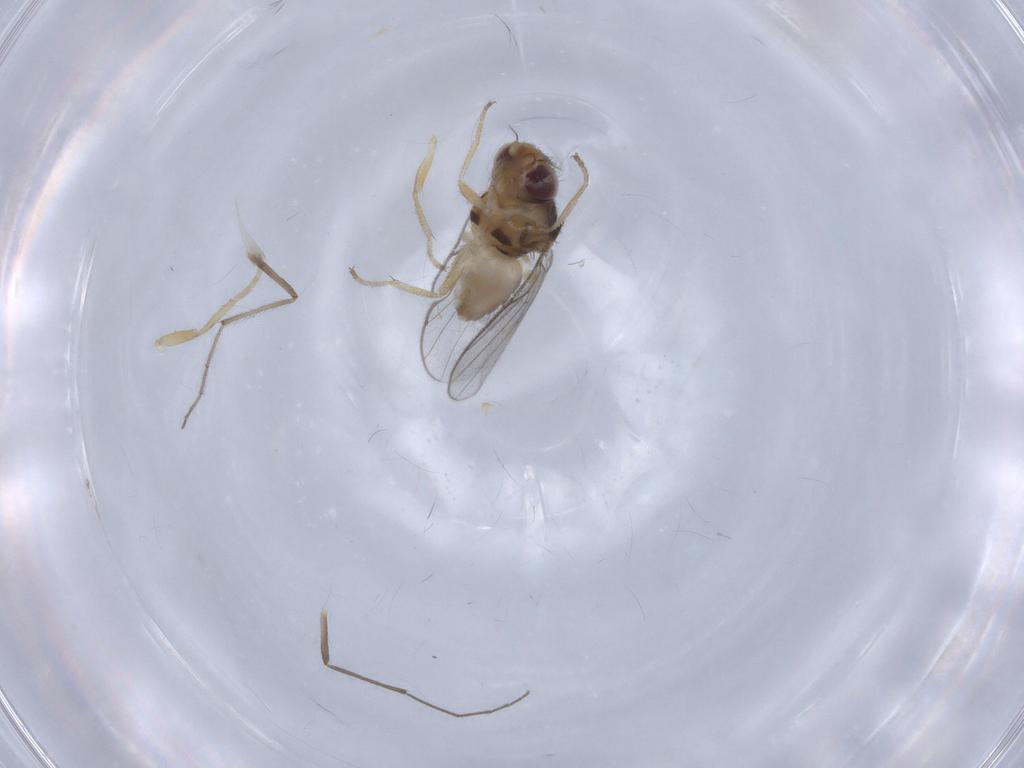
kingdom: Animalia
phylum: Arthropoda
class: Insecta
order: Diptera
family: Chloropidae
